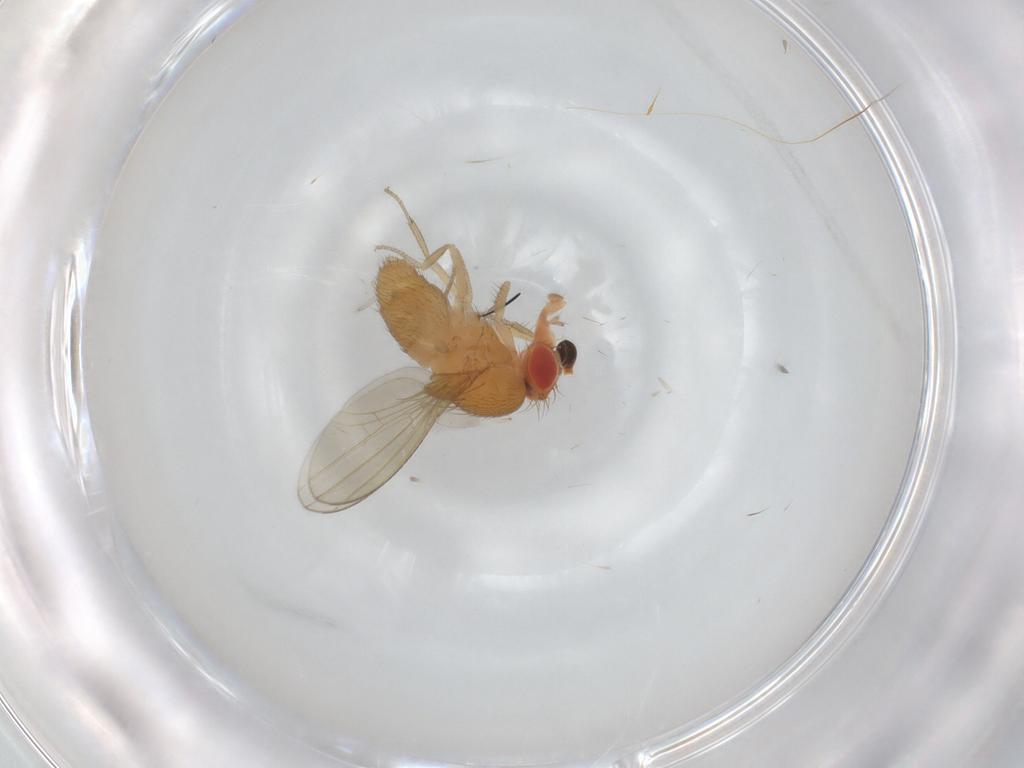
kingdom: Animalia
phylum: Arthropoda
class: Insecta
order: Diptera
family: Drosophilidae
